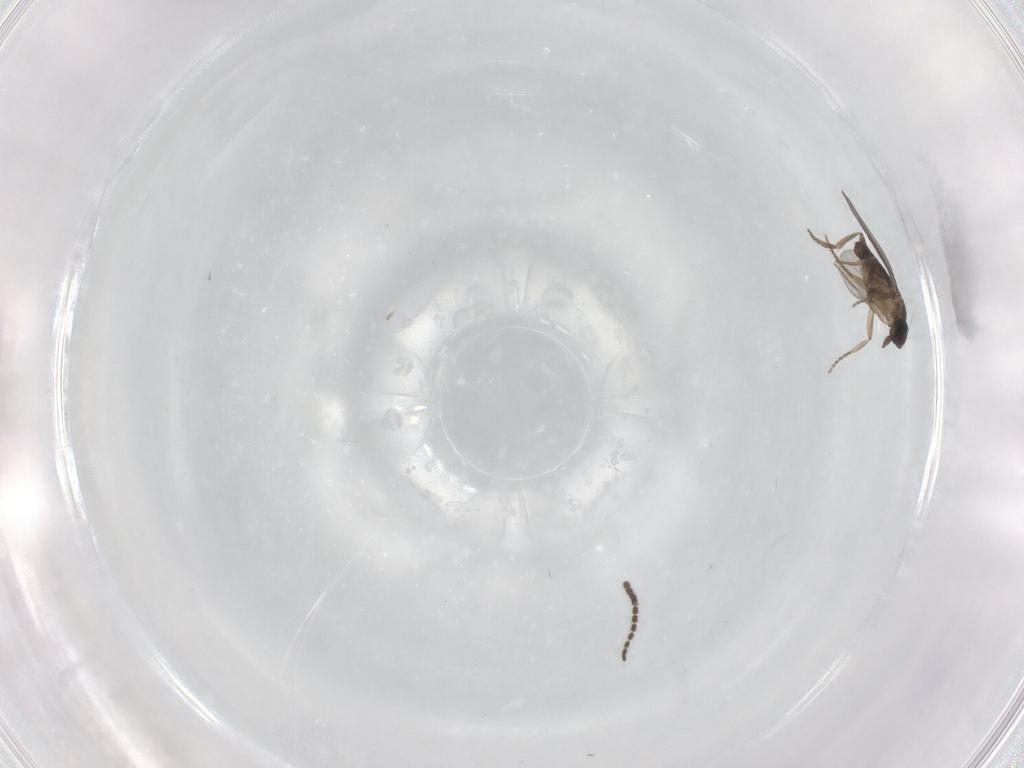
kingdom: Animalia
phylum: Arthropoda
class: Insecta
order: Diptera
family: Phoridae
